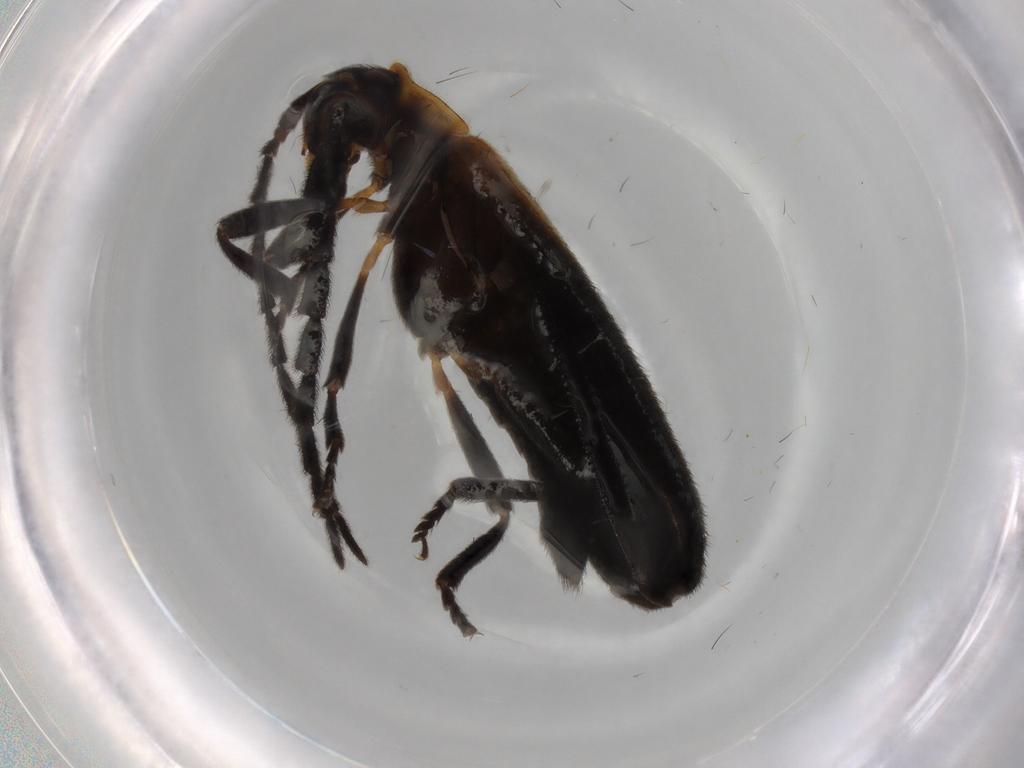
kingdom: Animalia
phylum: Arthropoda
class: Insecta
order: Coleoptera
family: Lycidae
